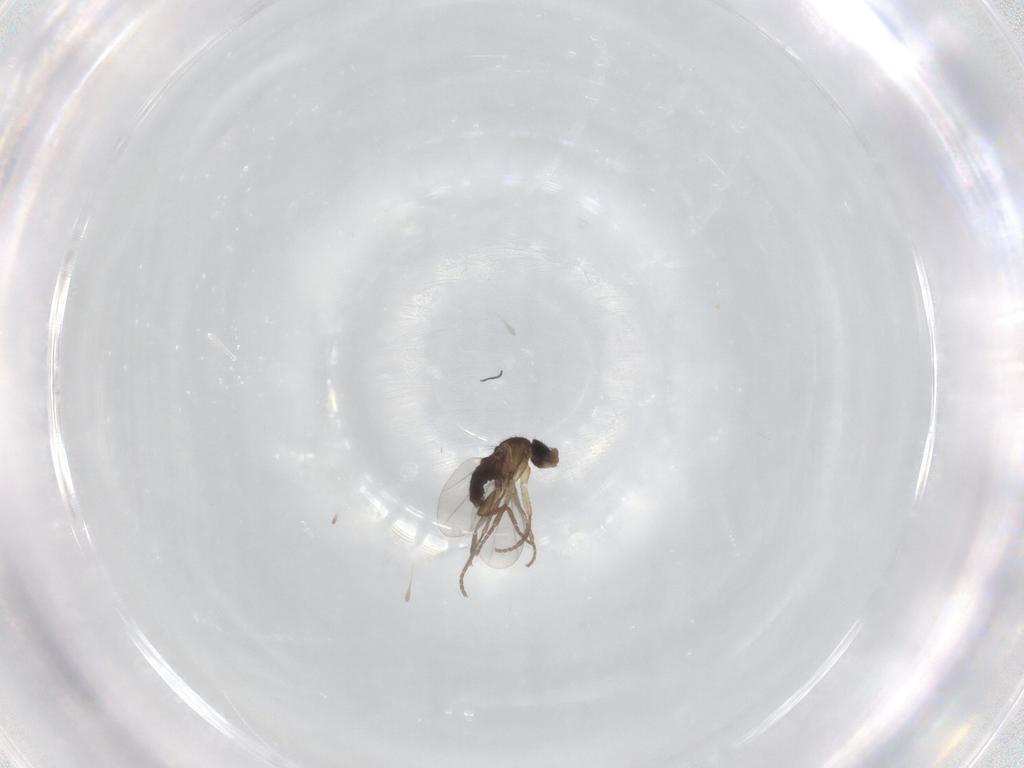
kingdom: Animalia
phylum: Arthropoda
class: Insecta
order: Diptera
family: Phoridae
